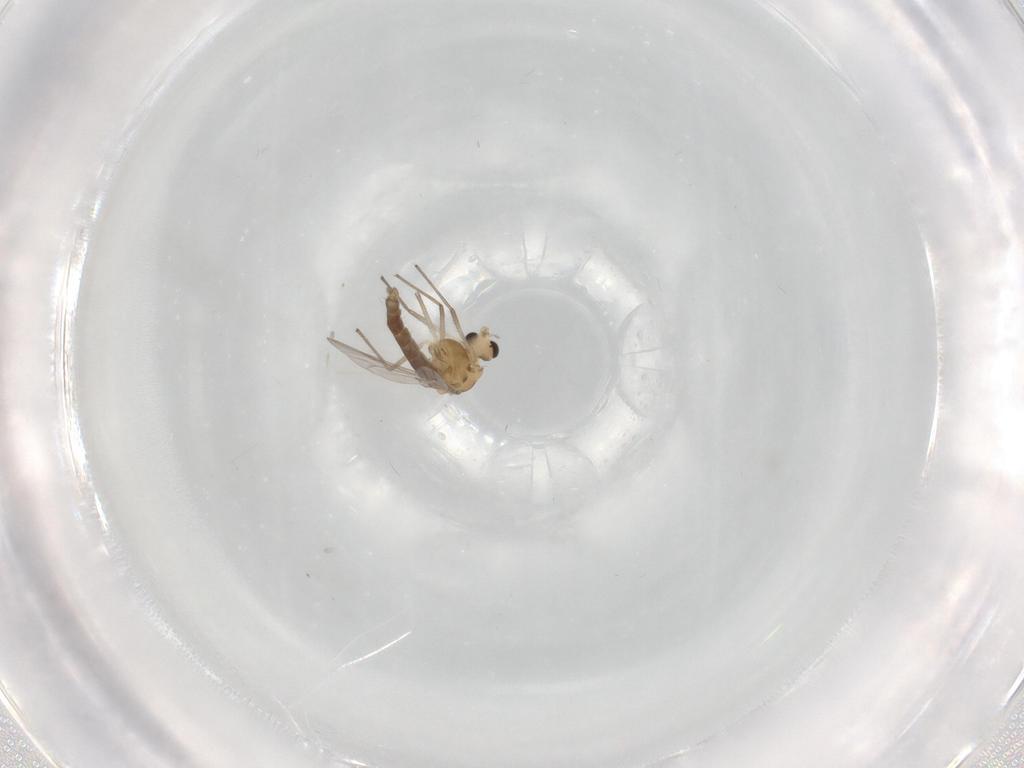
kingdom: Animalia
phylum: Arthropoda
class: Insecta
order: Diptera
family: Chironomidae
